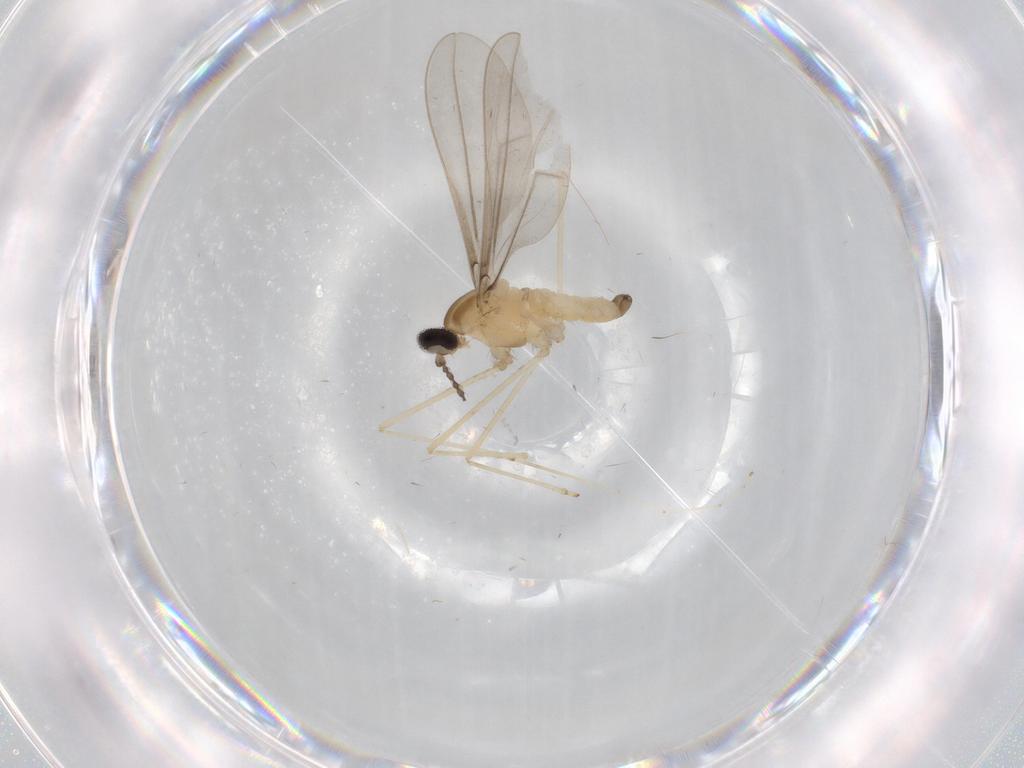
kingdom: Animalia
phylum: Arthropoda
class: Insecta
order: Diptera
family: Cecidomyiidae
